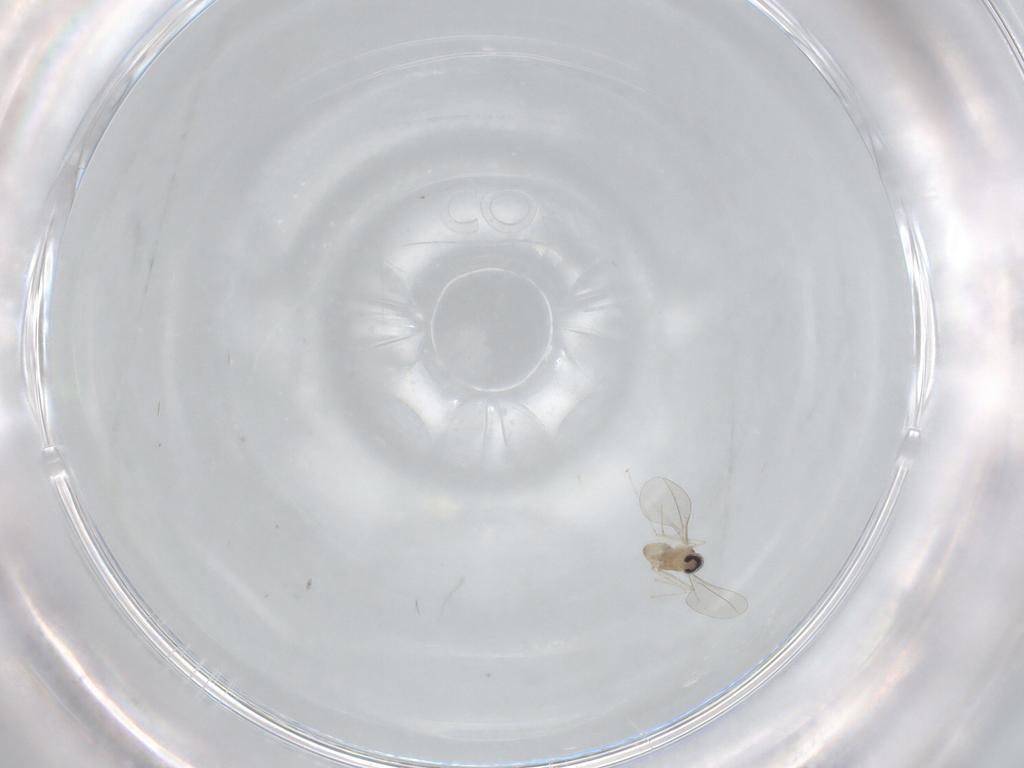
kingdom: Animalia
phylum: Arthropoda
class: Insecta
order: Diptera
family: Cecidomyiidae
